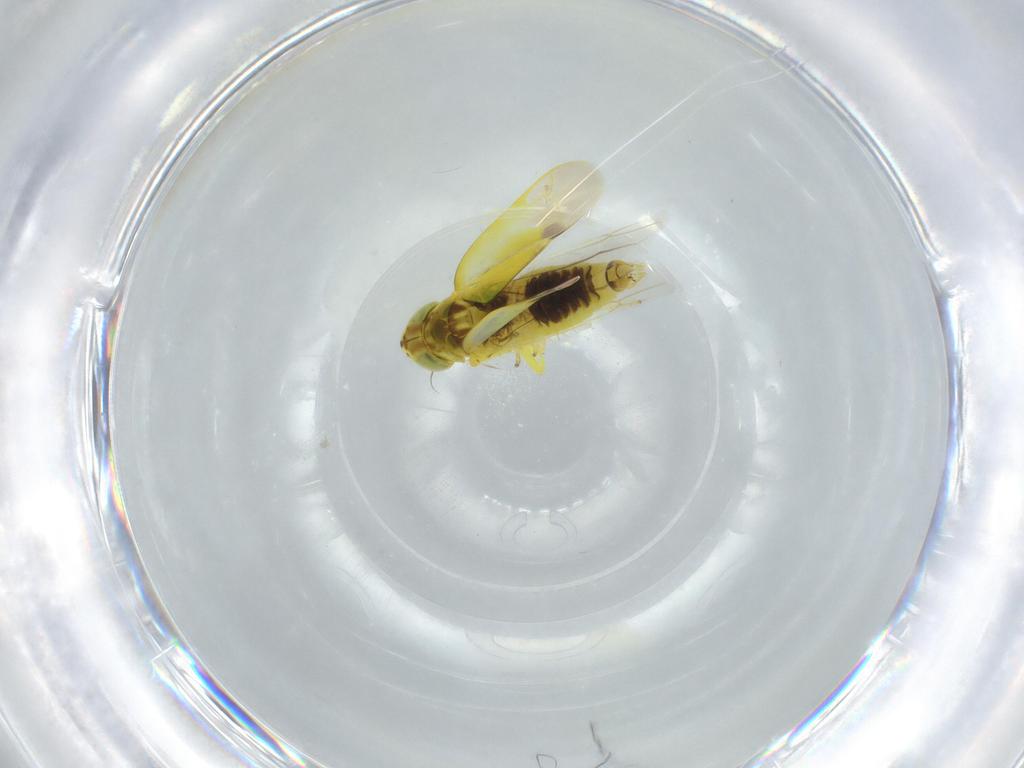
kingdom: Animalia
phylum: Arthropoda
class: Insecta
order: Hemiptera
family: Cicadellidae
